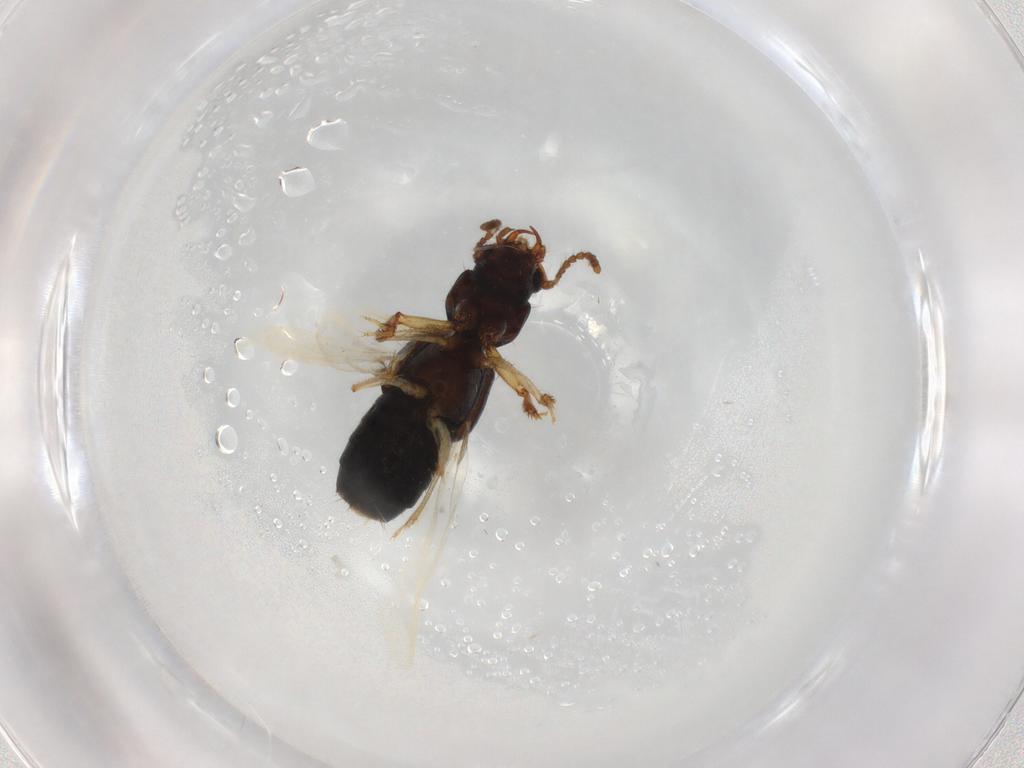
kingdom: Animalia
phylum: Arthropoda
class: Insecta
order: Coleoptera
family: Staphylinidae
